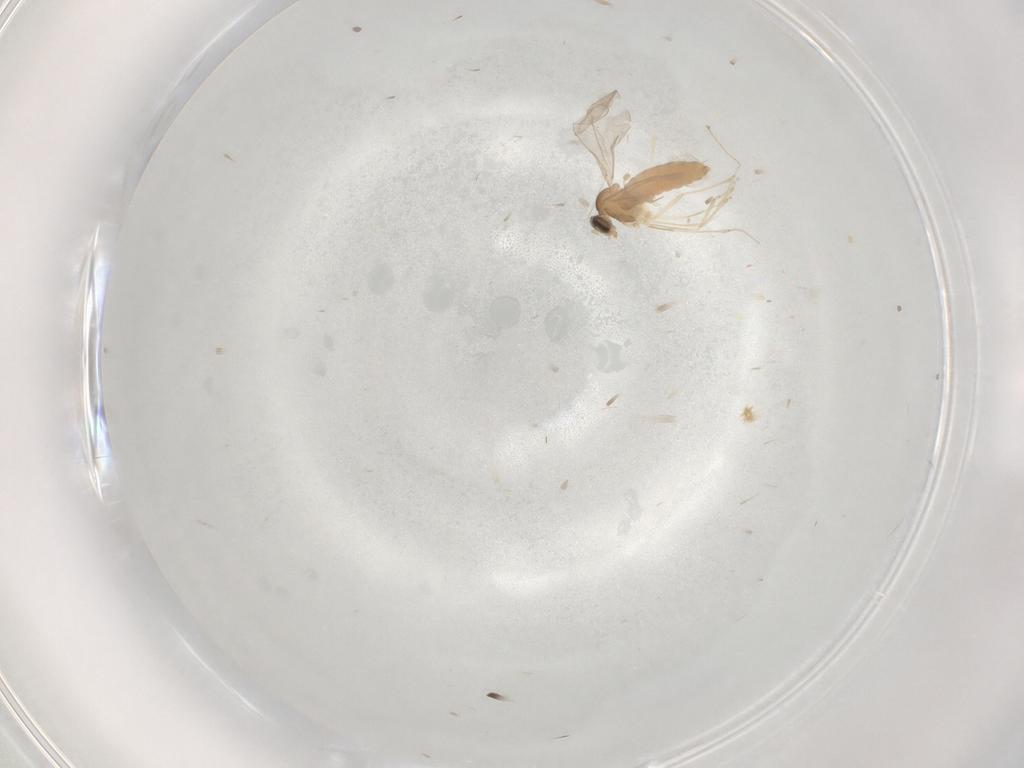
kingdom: Animalia
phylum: Arthropoda
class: Insecta
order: Diptera
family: Cecidomyiidae
